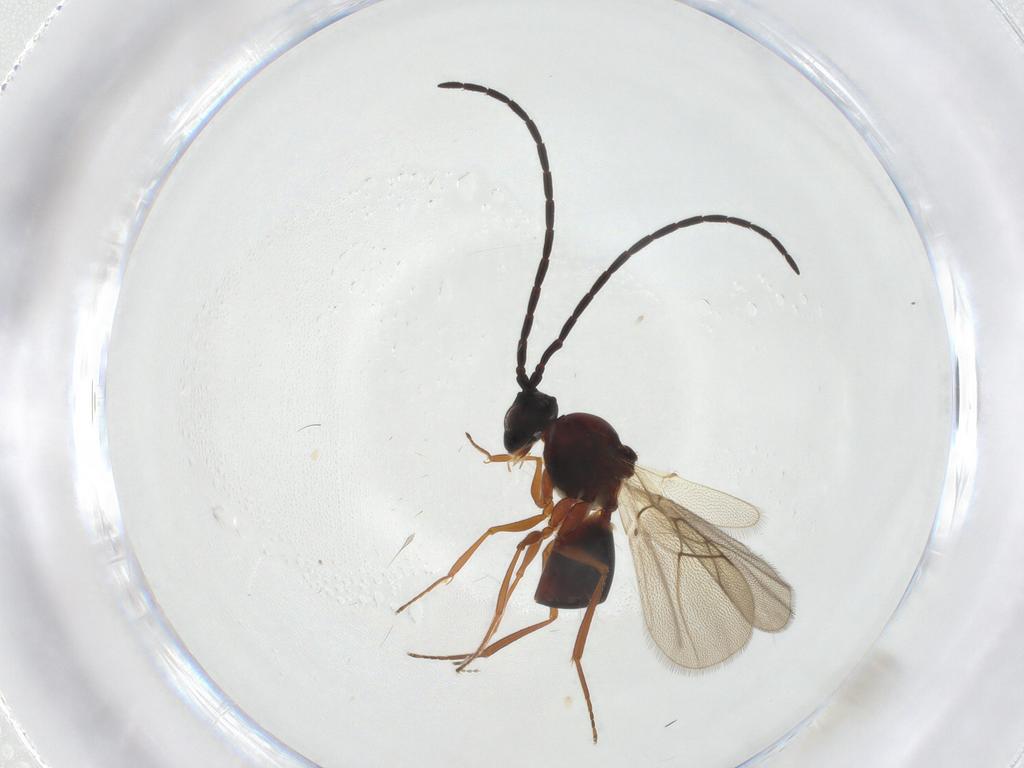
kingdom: Animalia
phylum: Arthropoda
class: Insecta
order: Hymenoptera
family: Figitidae
